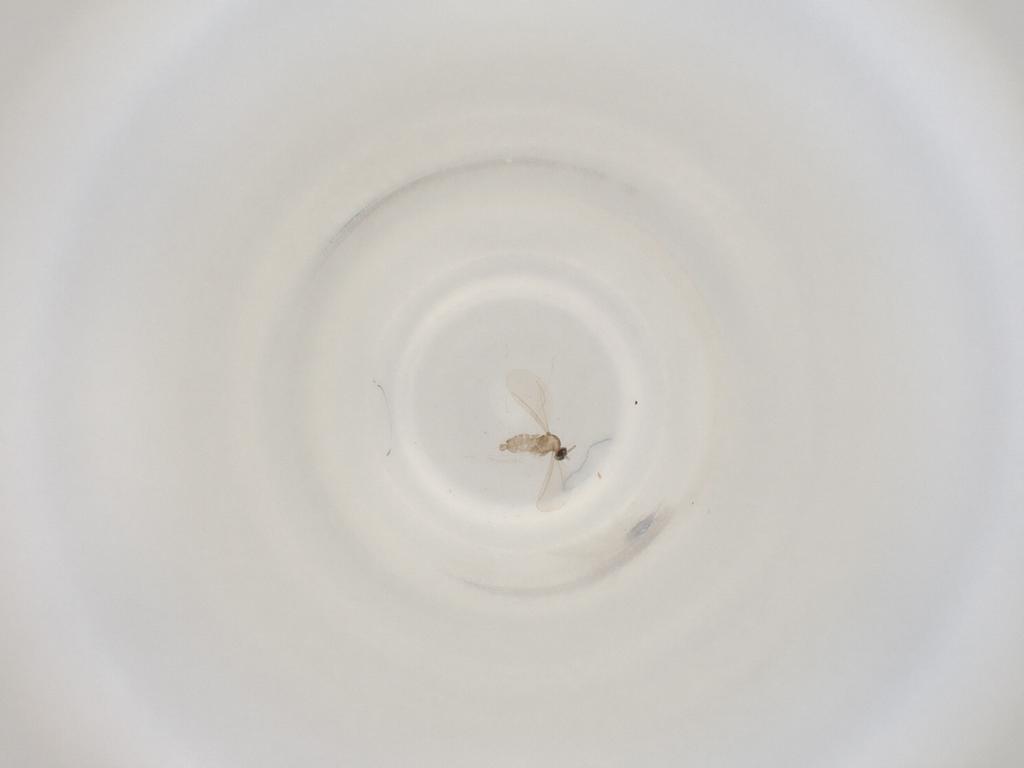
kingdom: Animalia
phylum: Arthropoda
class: Insecta
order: Diptera
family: Cecidomyiidae
